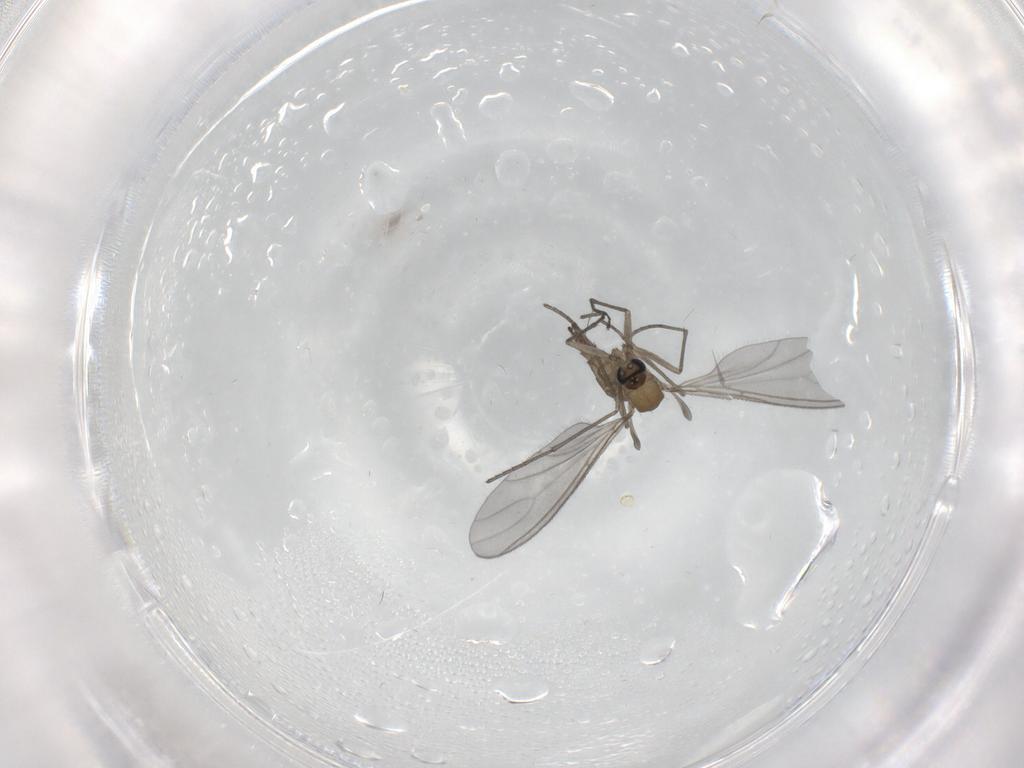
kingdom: Animalia
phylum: Arthropoda
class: Insecta
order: Diptera
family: Sciaridae
